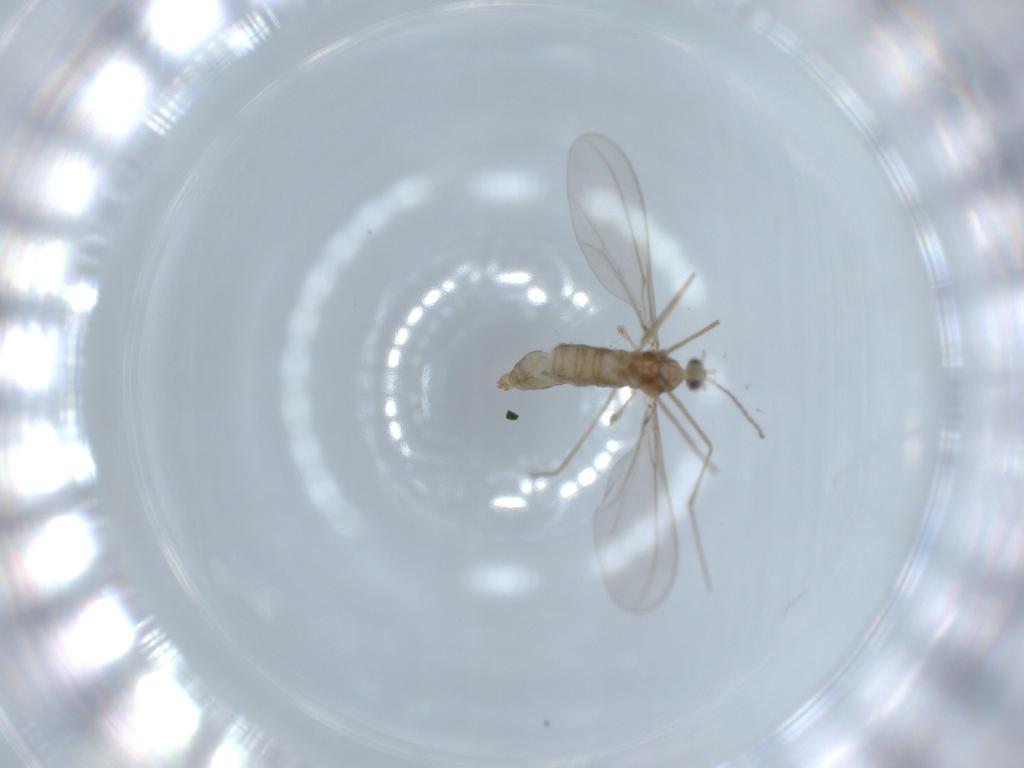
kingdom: Animalia
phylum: Arthropoda
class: Insecta
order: Diptera
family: Cecidomyiidae
